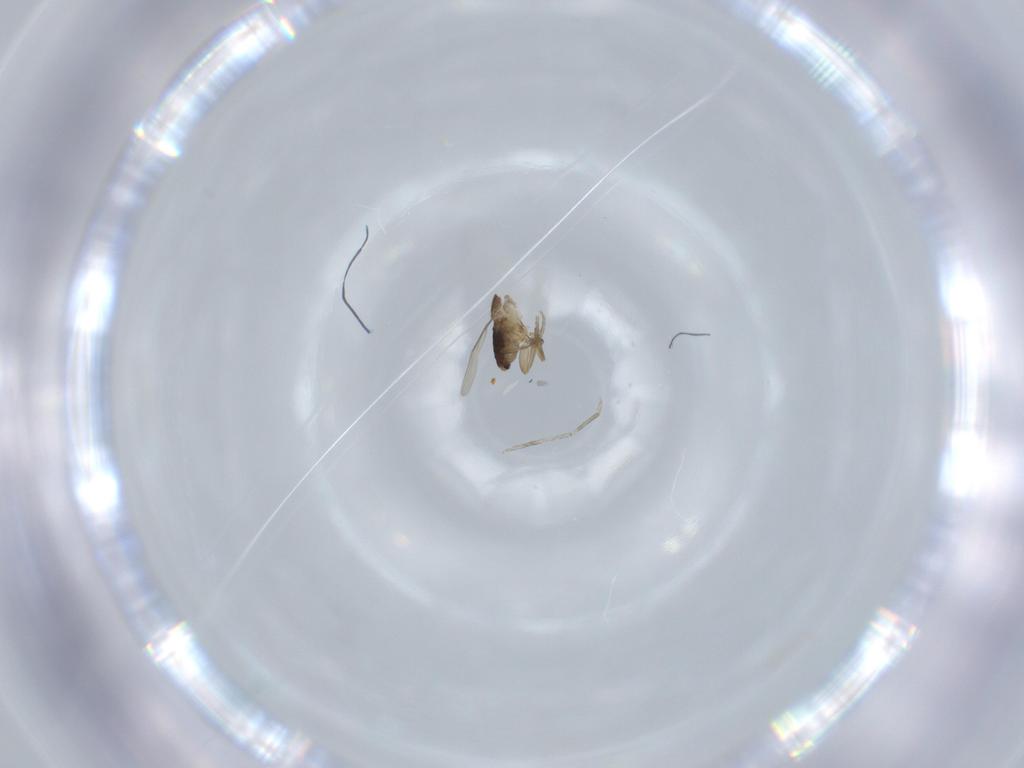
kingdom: Animalia
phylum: Arthropoda
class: Insecta
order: Diptera
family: Phoridae
